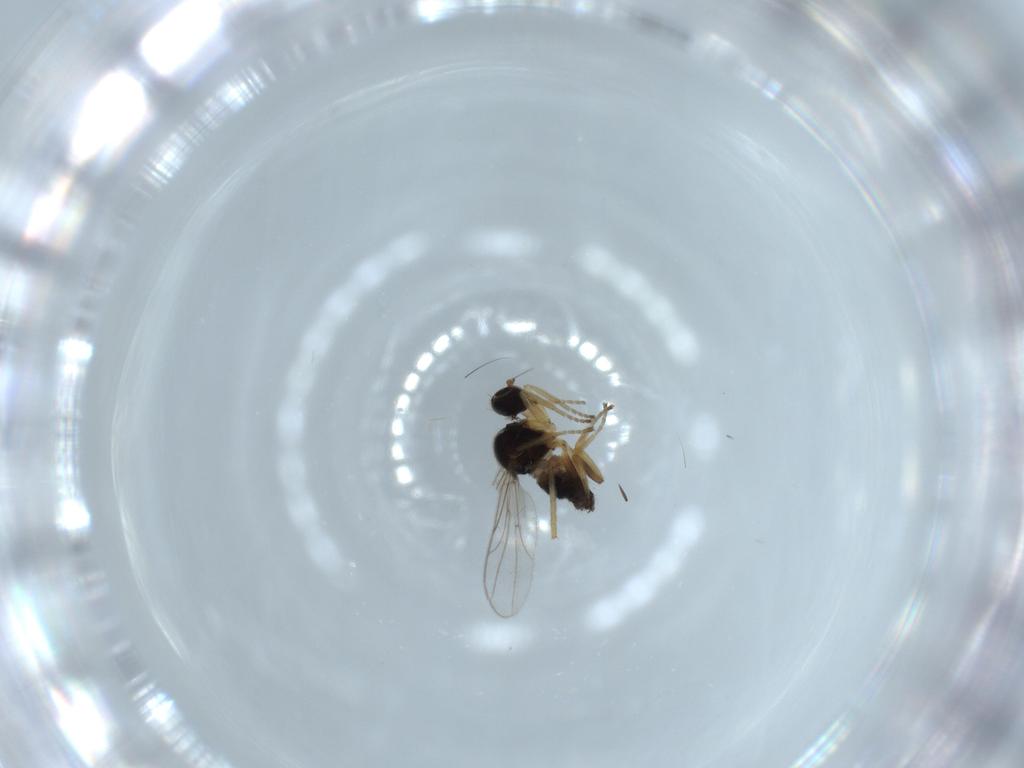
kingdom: Animalia
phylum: Arthropoda
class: Insecta
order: Diptera
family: Hybotidae
